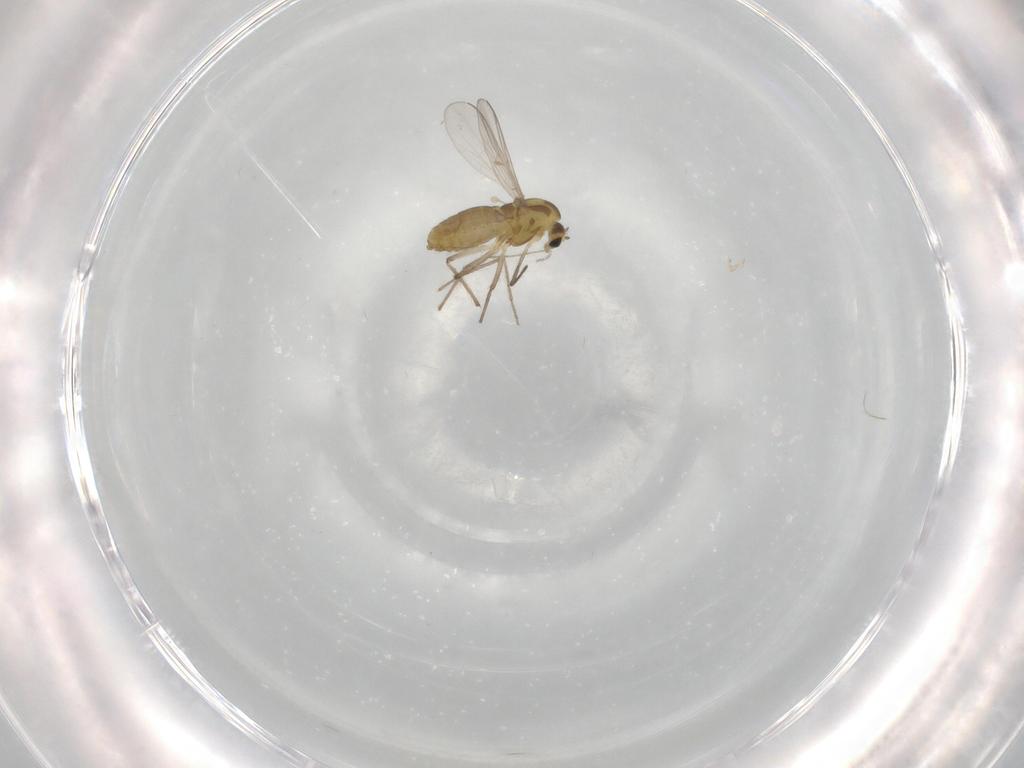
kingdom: Animalia
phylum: Arthropoda
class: Insecta
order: Diptera
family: Chironomidae
